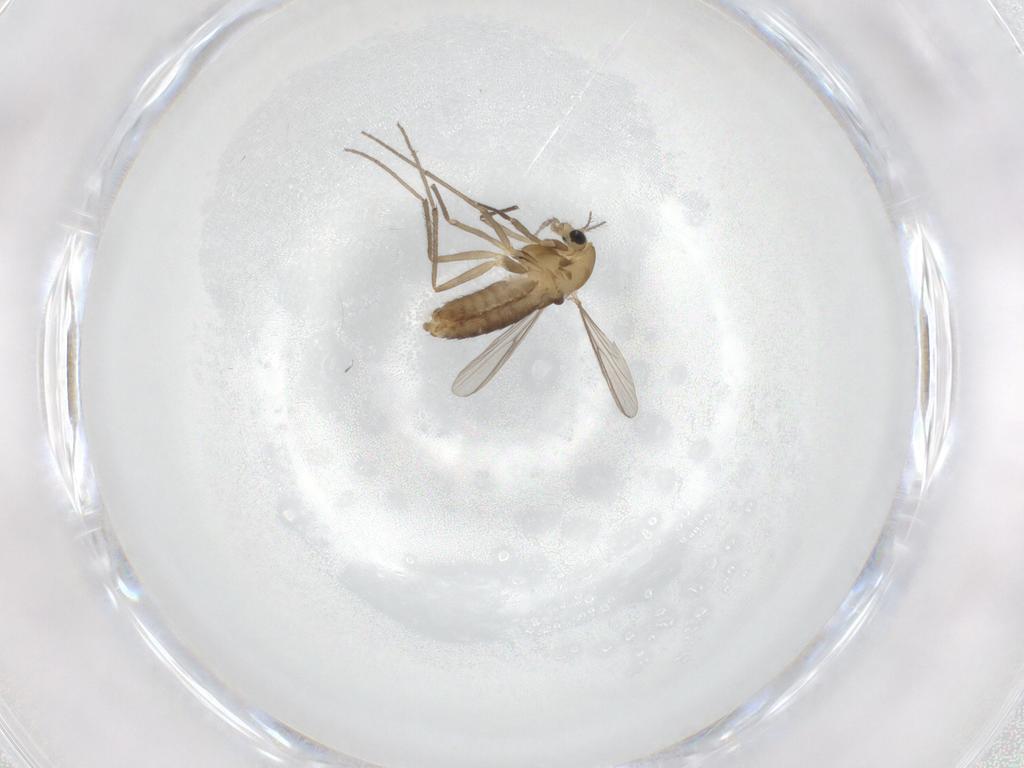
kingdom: Animalia
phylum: Arthropoda
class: Insecta
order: Diptera
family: Chironomidae
